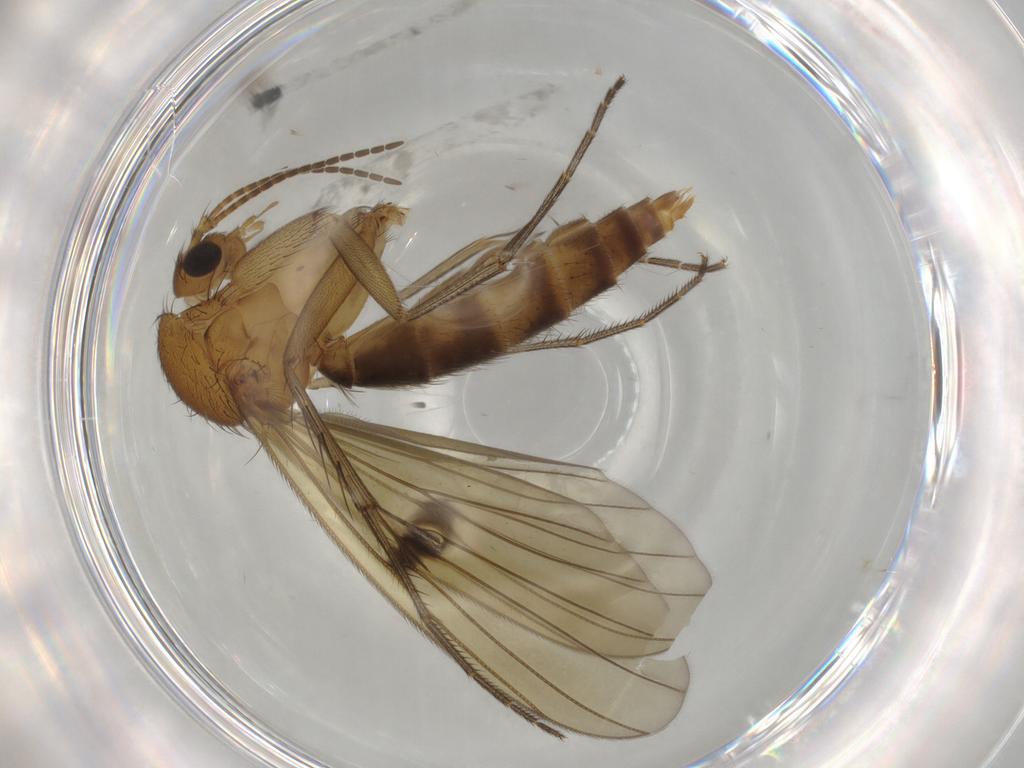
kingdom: Animalia
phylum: Arthropoda
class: Insecta
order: Diptera
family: Mycetophilidae
